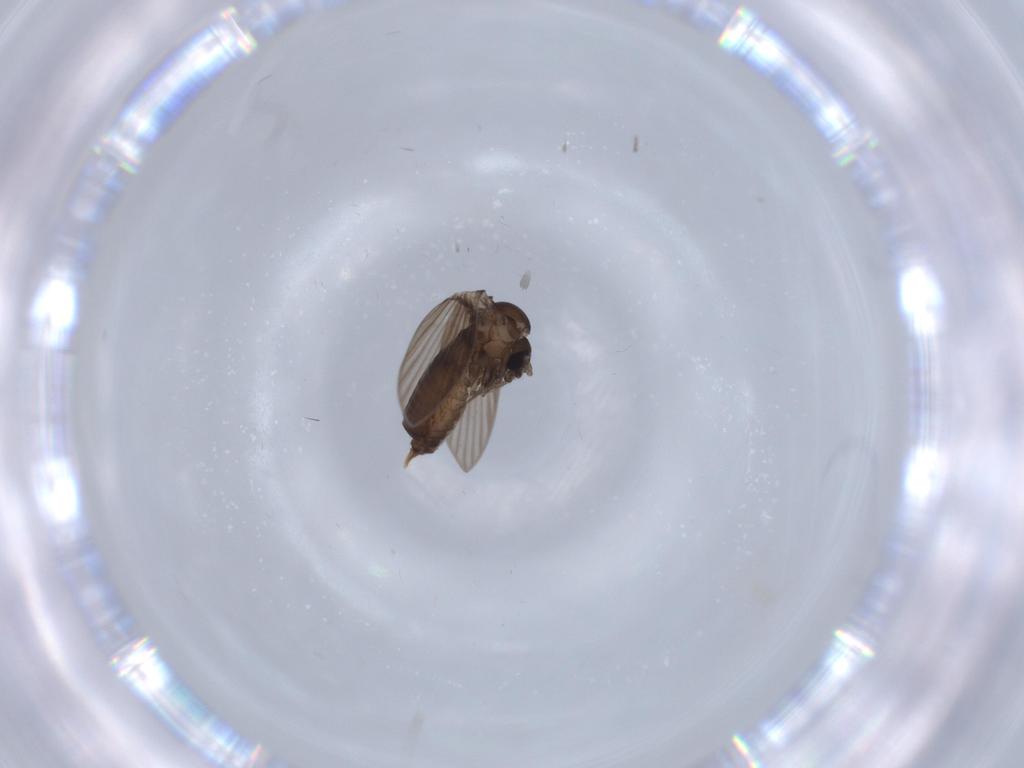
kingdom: Animalia
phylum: Arthropoda
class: Insecta
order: Diptera
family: Psychodidae
